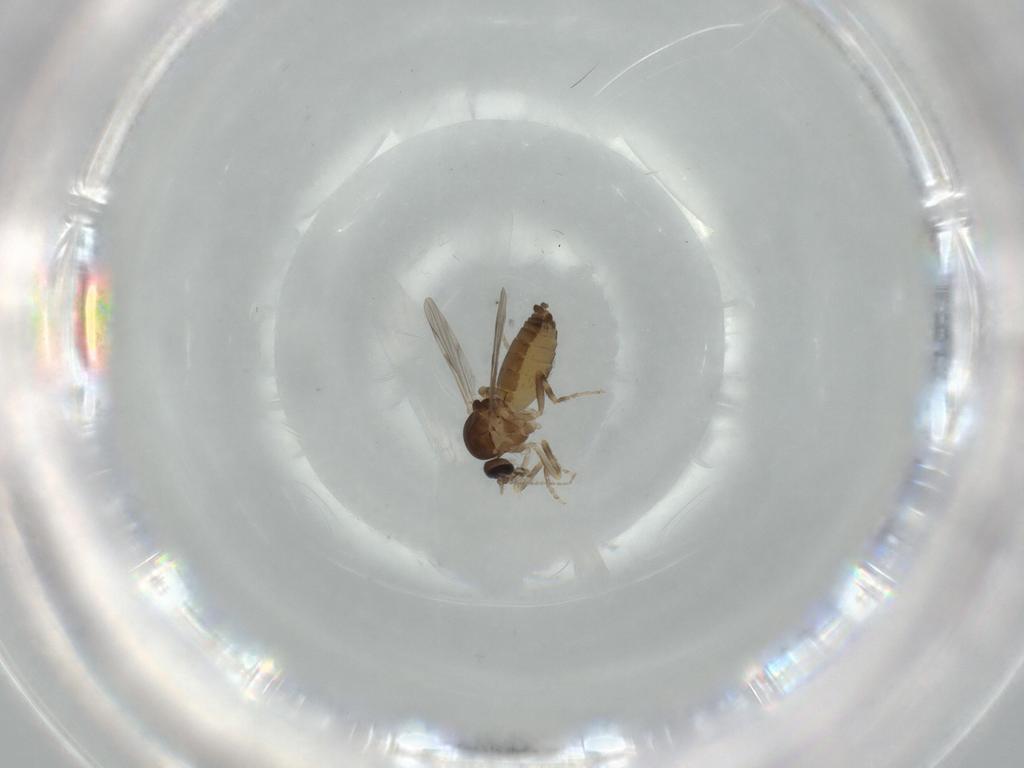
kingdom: Animalia
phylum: Arthropoda
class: Insecta
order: Diptera
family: Ceratopogonidae
